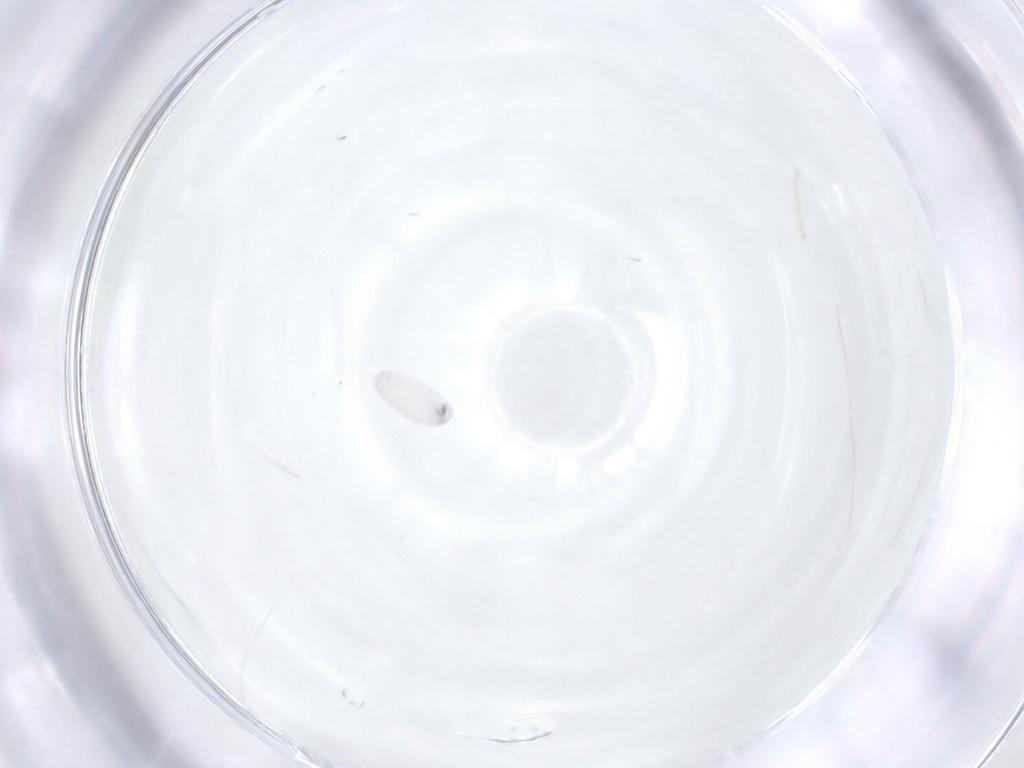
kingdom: Animalia
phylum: Arthropoda
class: Insecta
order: Diptera
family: Tachinidae
